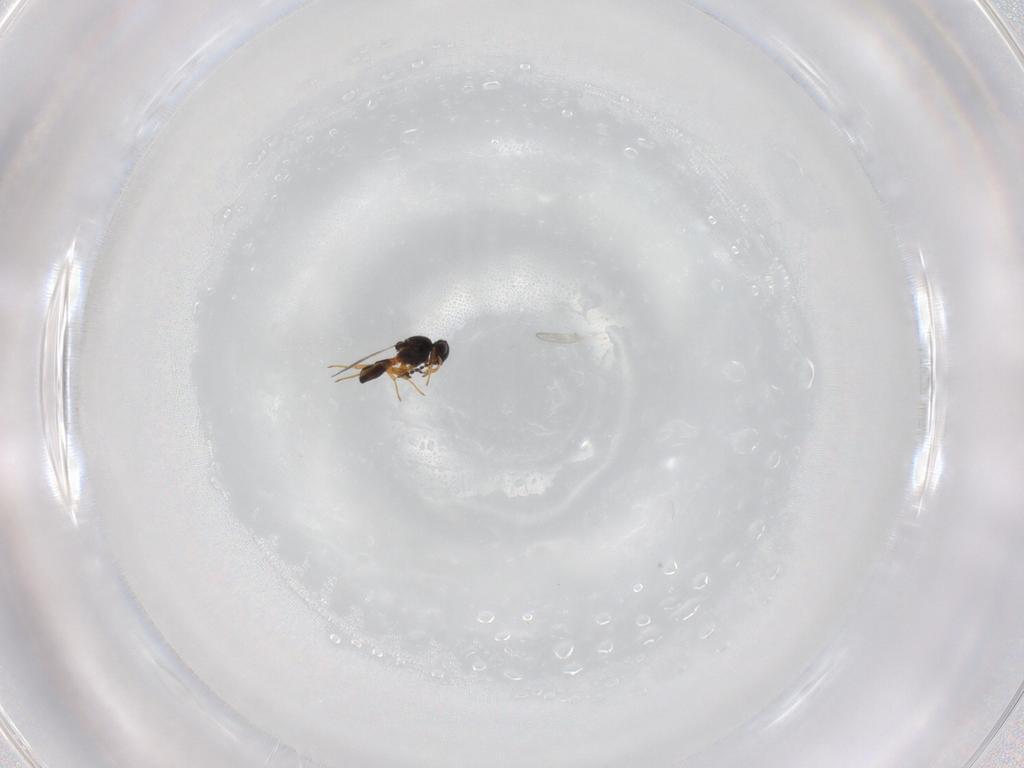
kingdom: Animalia
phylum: Arthropoda
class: Insecta
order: Hymenoptera
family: Platygastridae
